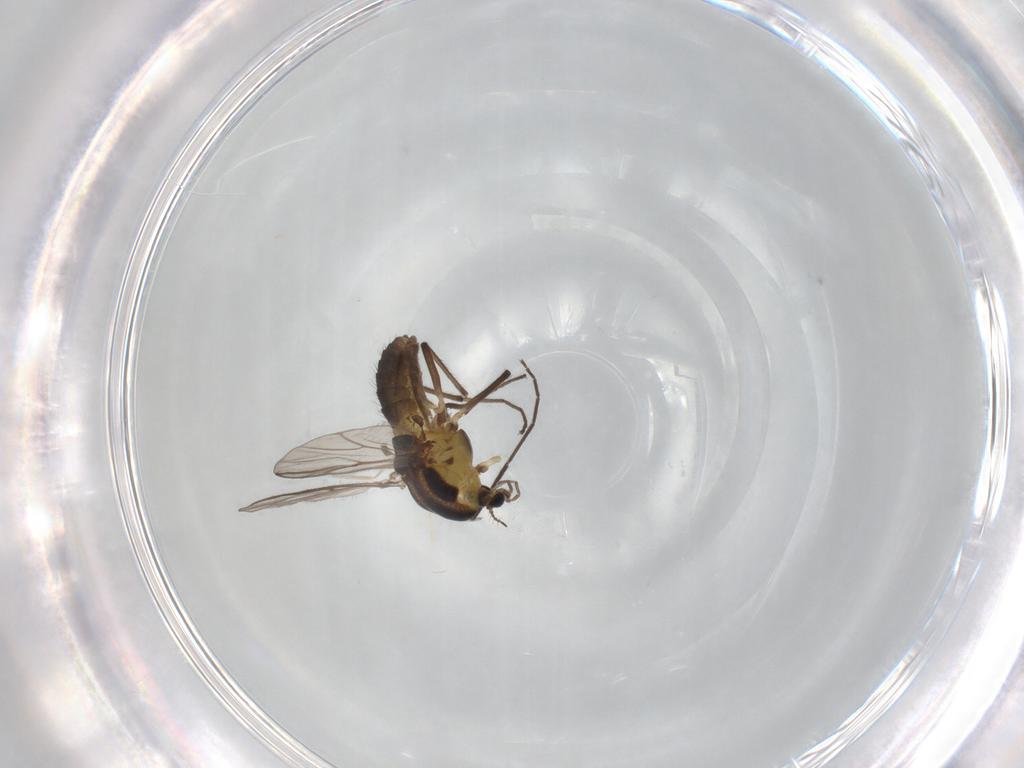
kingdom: Animalia
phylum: Arthropoda
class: Insecta
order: Diptera
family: Chironomidae
